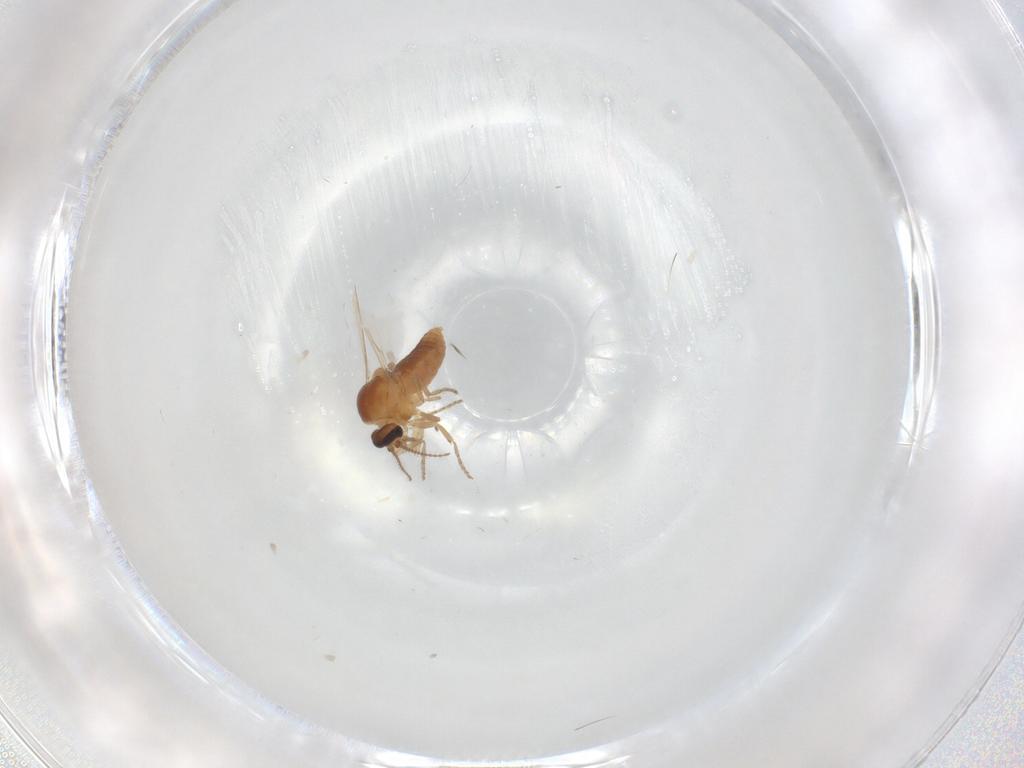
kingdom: Animalia
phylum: Arthropoda
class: Insecta
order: Diptera
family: Ceratopogonidae
